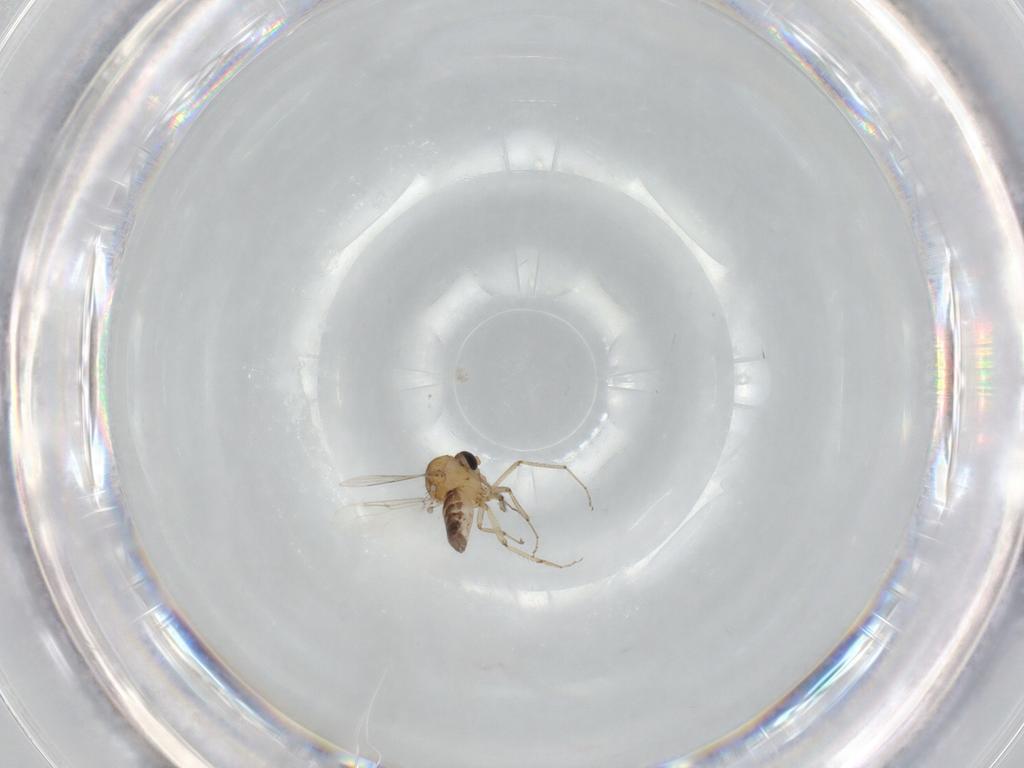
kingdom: Animalia
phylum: Arthropoda
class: Insecta
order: Diptera
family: Ceratopogonidae
